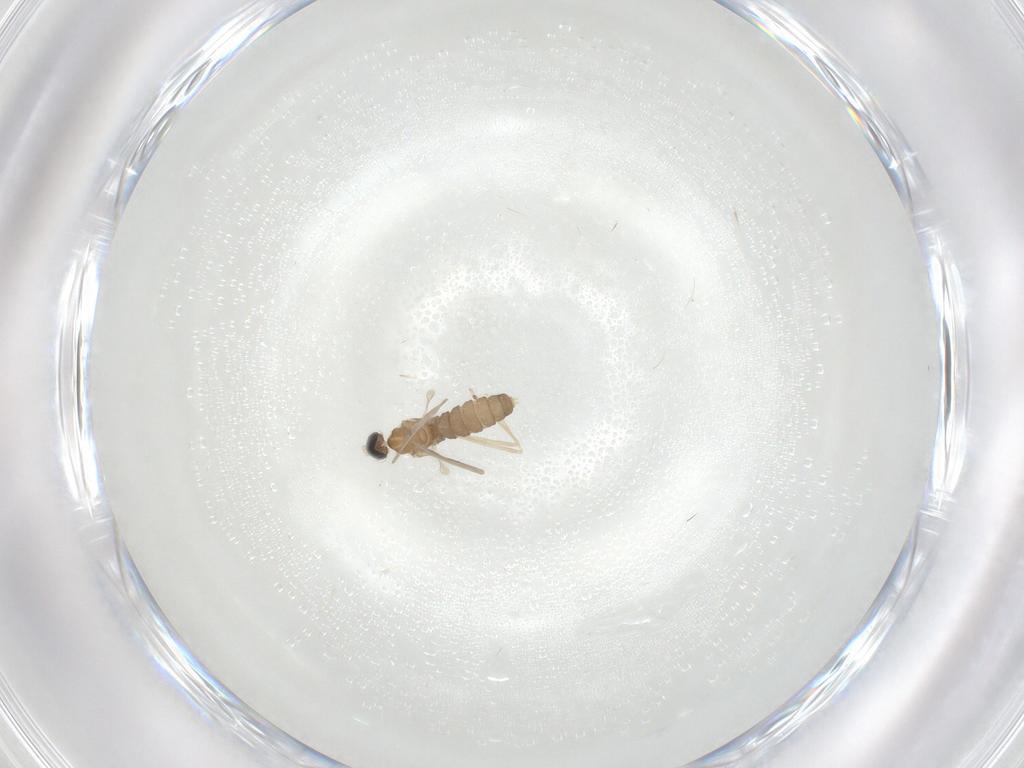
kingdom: Animalia
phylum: Arthropoda
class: Insecta
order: Diptera
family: Cecidomyiidae
